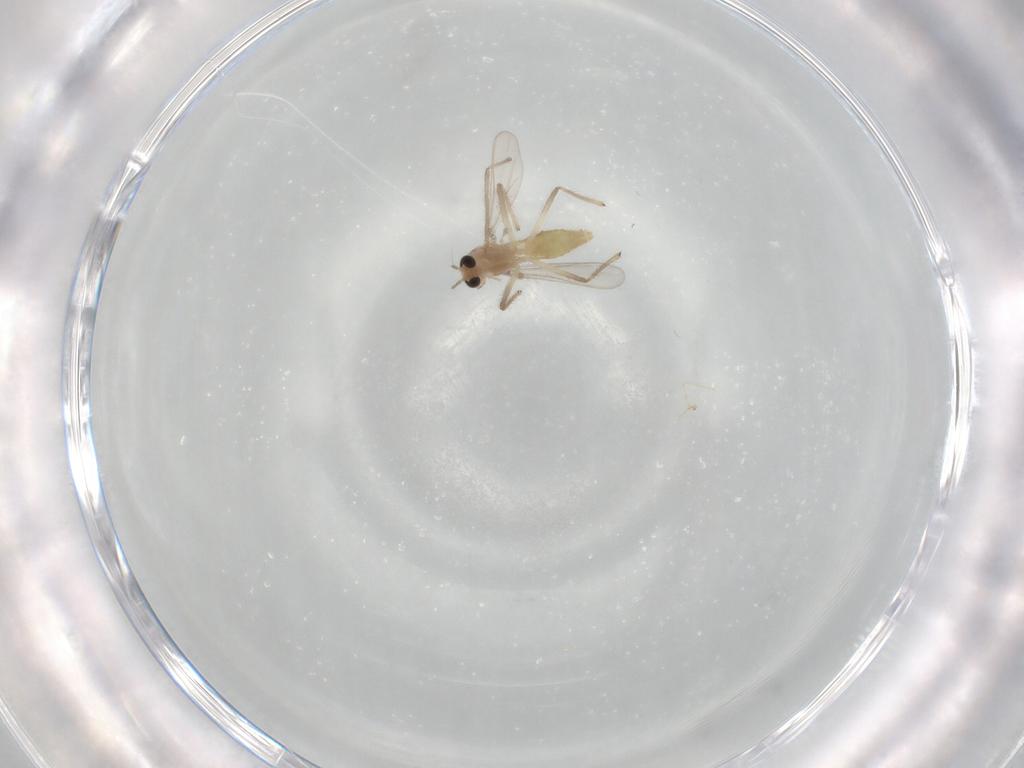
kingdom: Animalia
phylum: Arthropoda
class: Insecta
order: Diptera
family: Chironomidae
